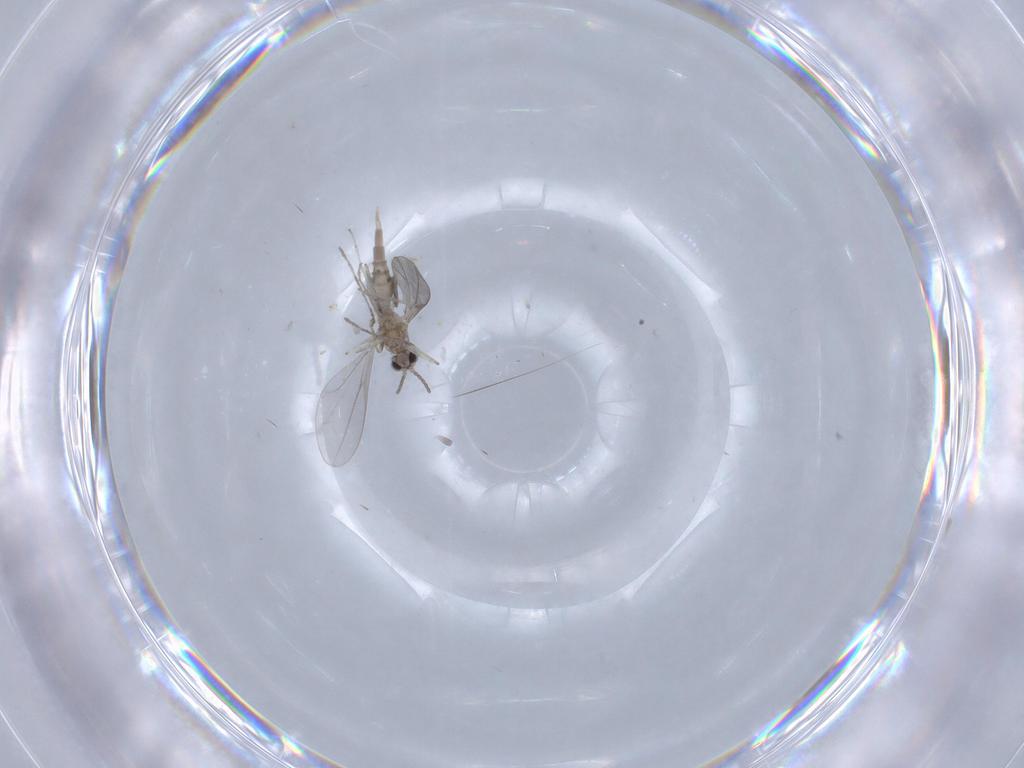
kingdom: Animalia
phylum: Arthropoda
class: Insecta
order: Diptera
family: Cecidomyiidae
